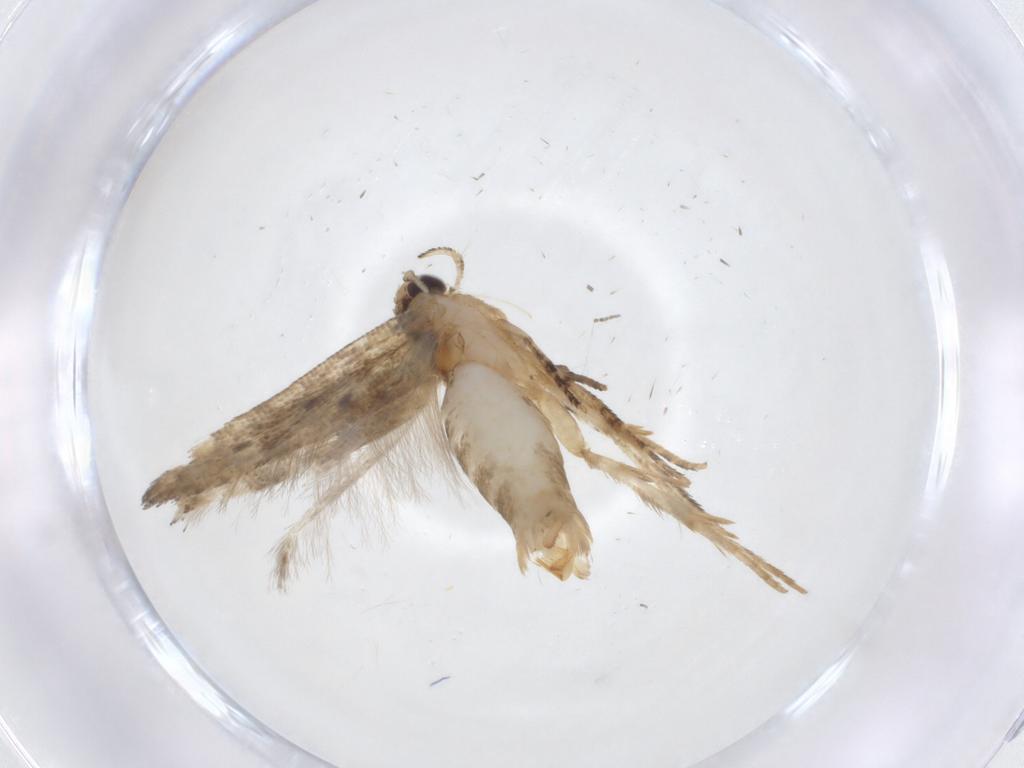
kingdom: Animalia
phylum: Arthropoda
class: Insecta
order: Lepidoptera
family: Gelechiidae
